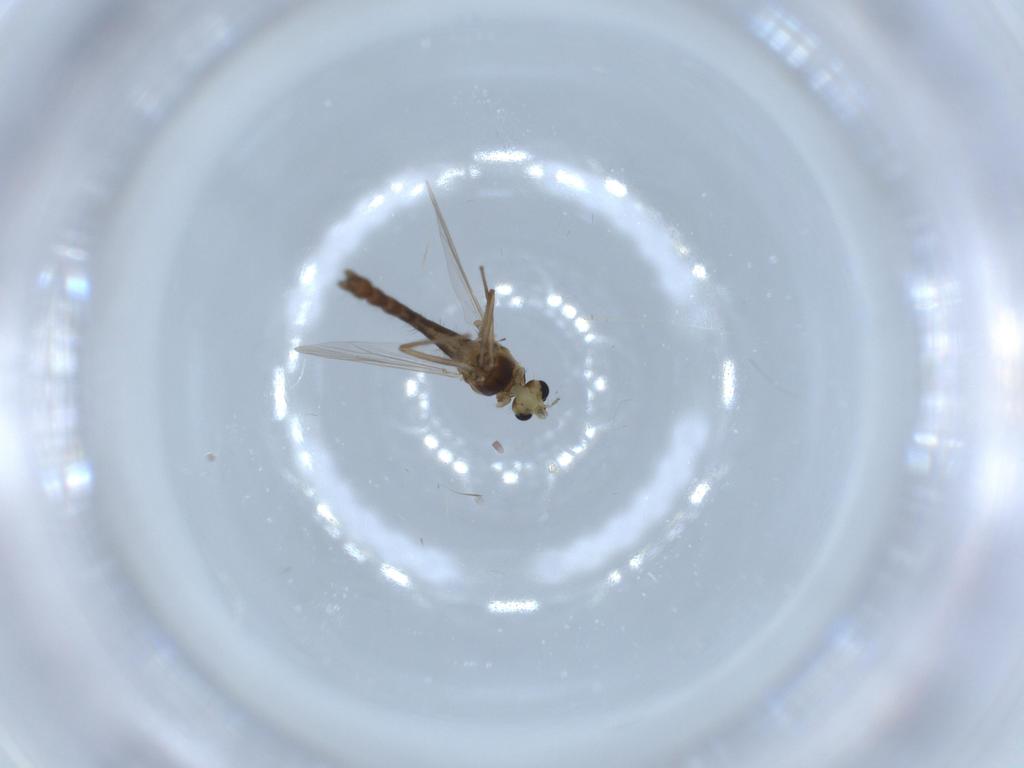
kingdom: Animalia
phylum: Arthropoda
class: Insecta
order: Diptera
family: Chironomidae
